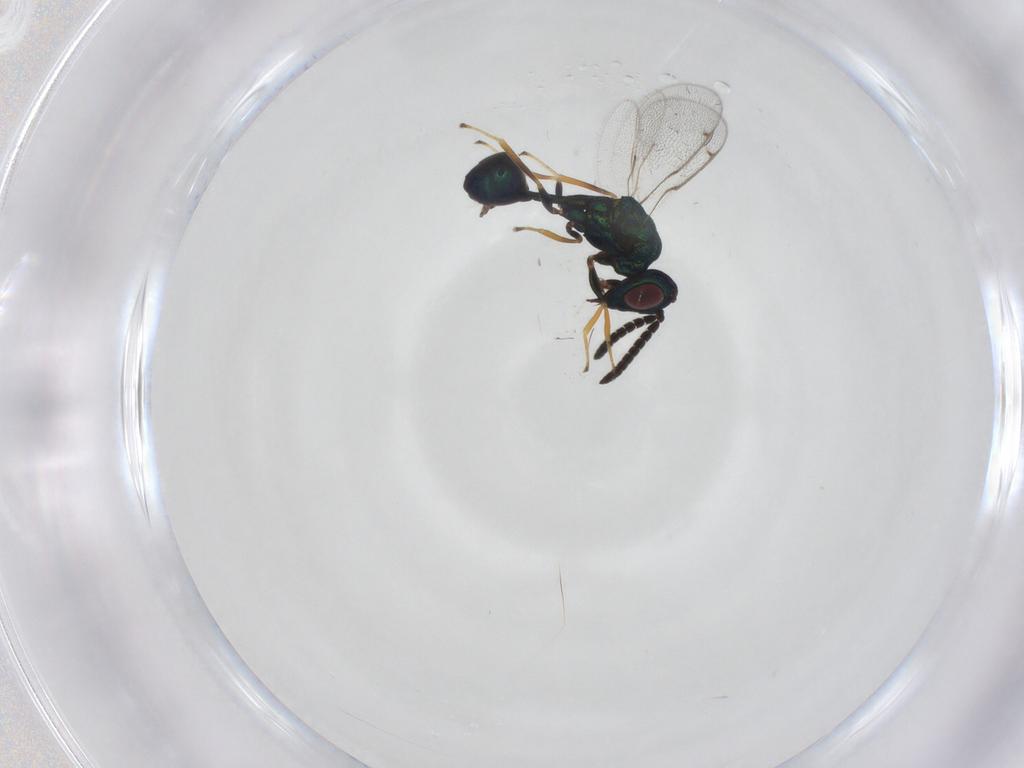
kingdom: Animalia
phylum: Arthropoda
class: Insecta
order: Hymenoptera
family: Eucharitidae
